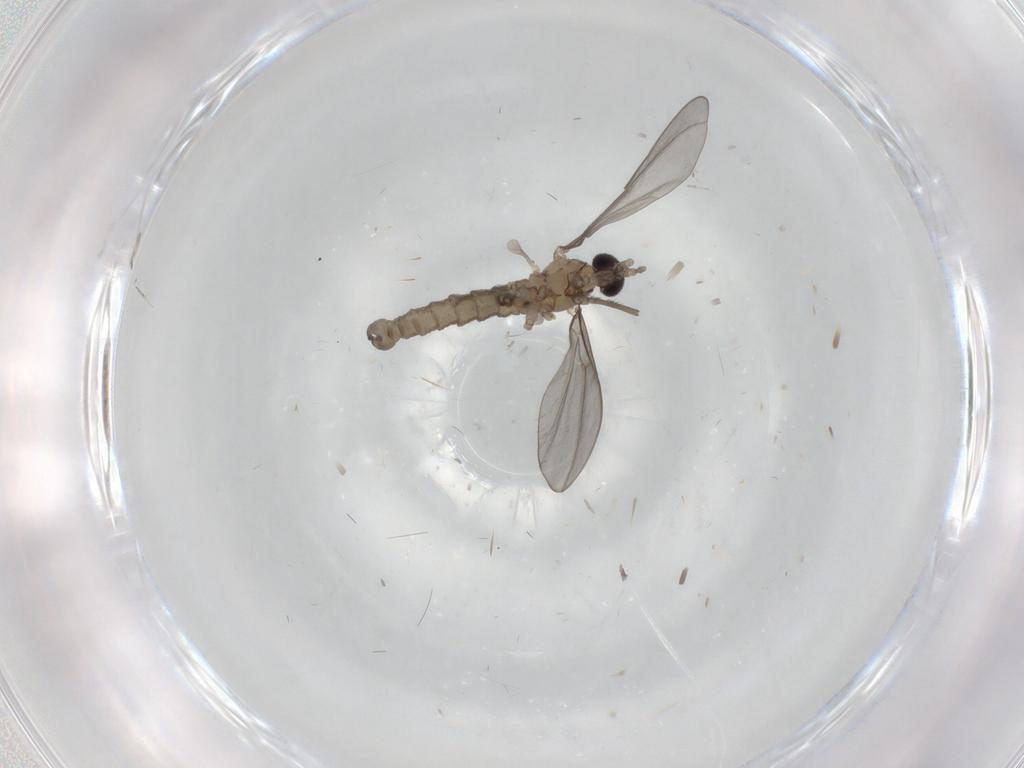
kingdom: Animalia
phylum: Arthropoda
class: Insecta
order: Diptera
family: Cecidomyiidae
